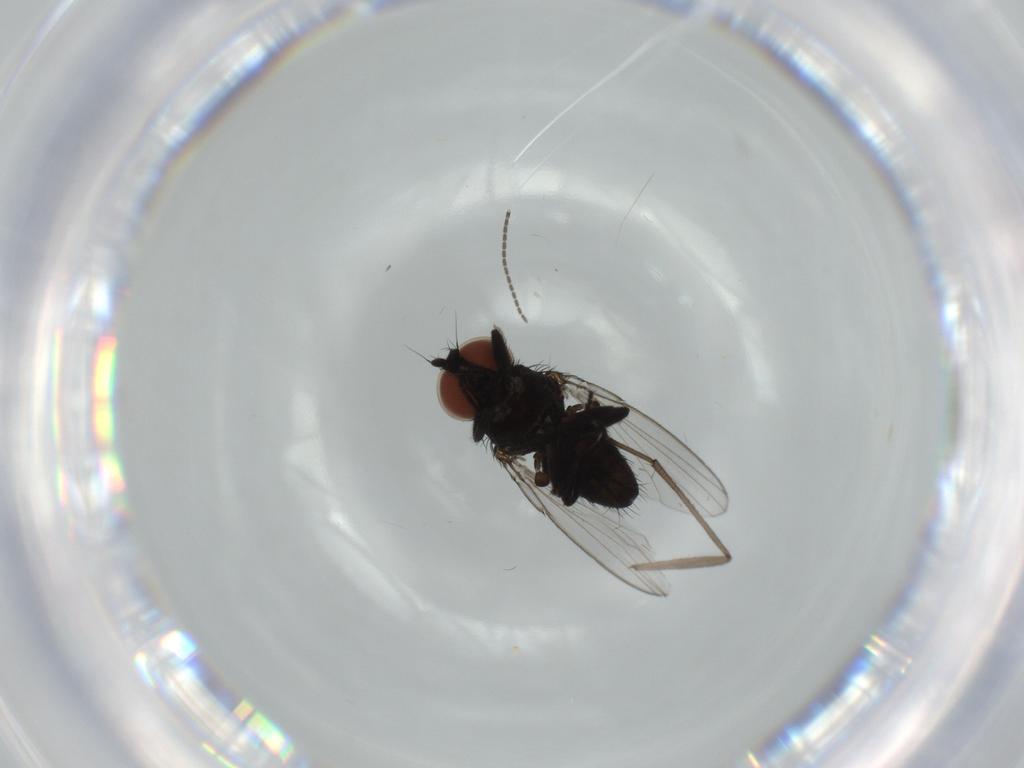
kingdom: Animalia
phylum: Arthropoda
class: Insecta
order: Diptera
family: Milichiidae
